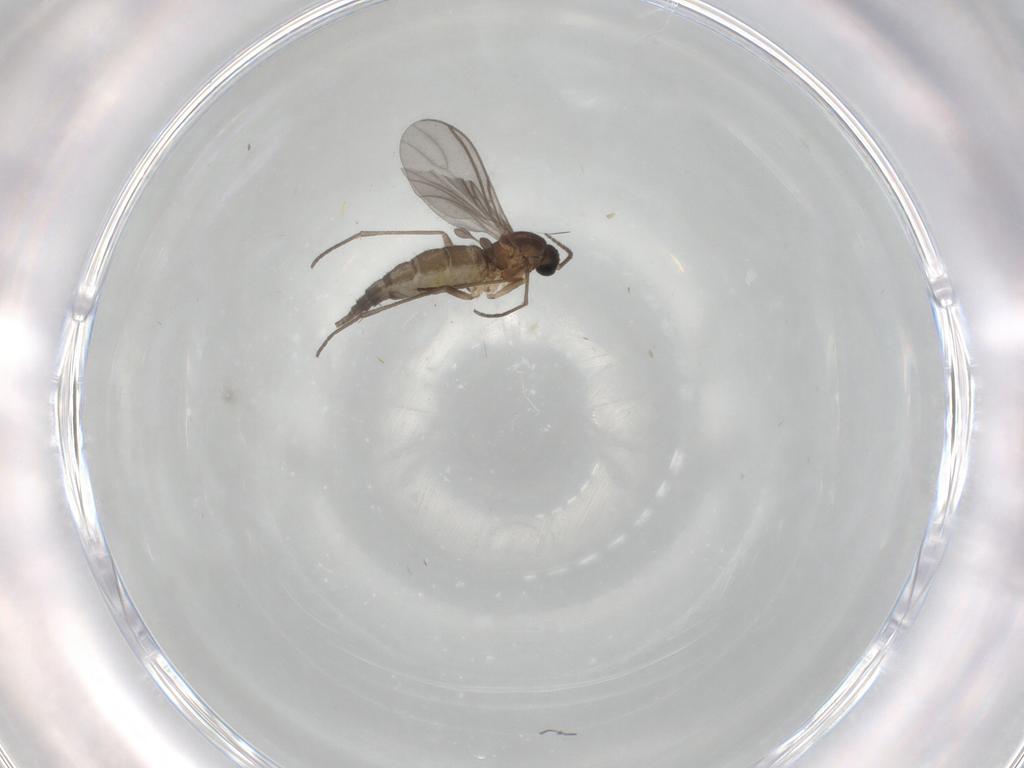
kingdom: Animalia
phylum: Arthropoda
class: Insecta
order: Diptera
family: Sciaridae
